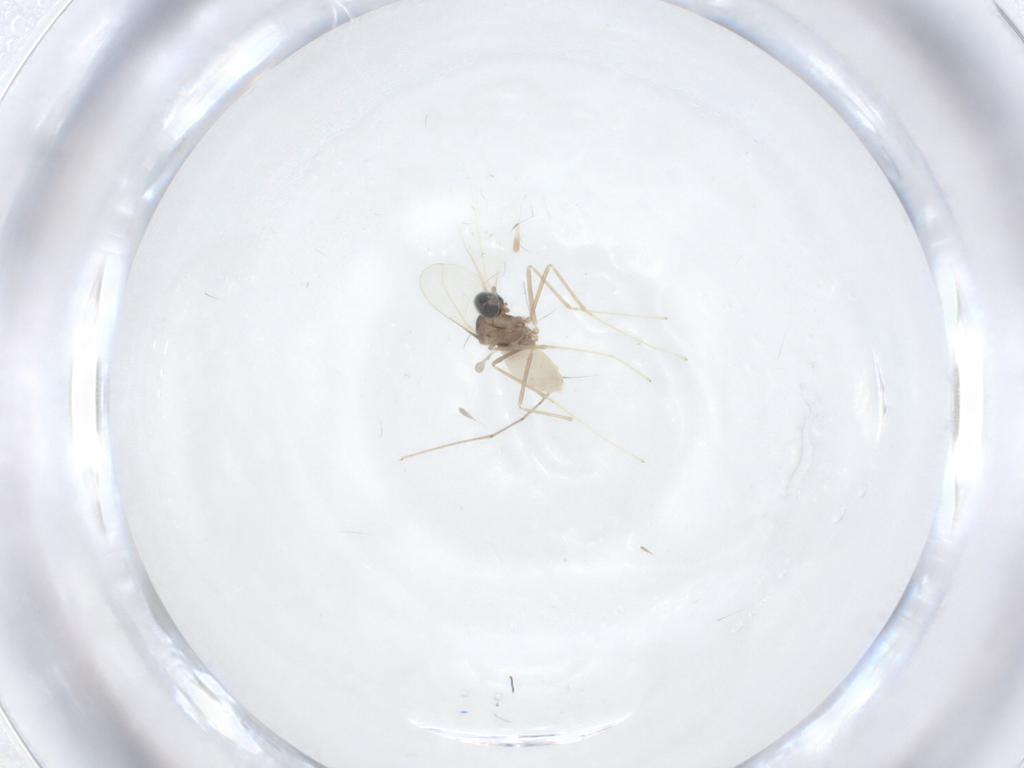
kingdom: Animalia
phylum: Arthropoda
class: Insecta
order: Diptera
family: Cecidomyiidae
